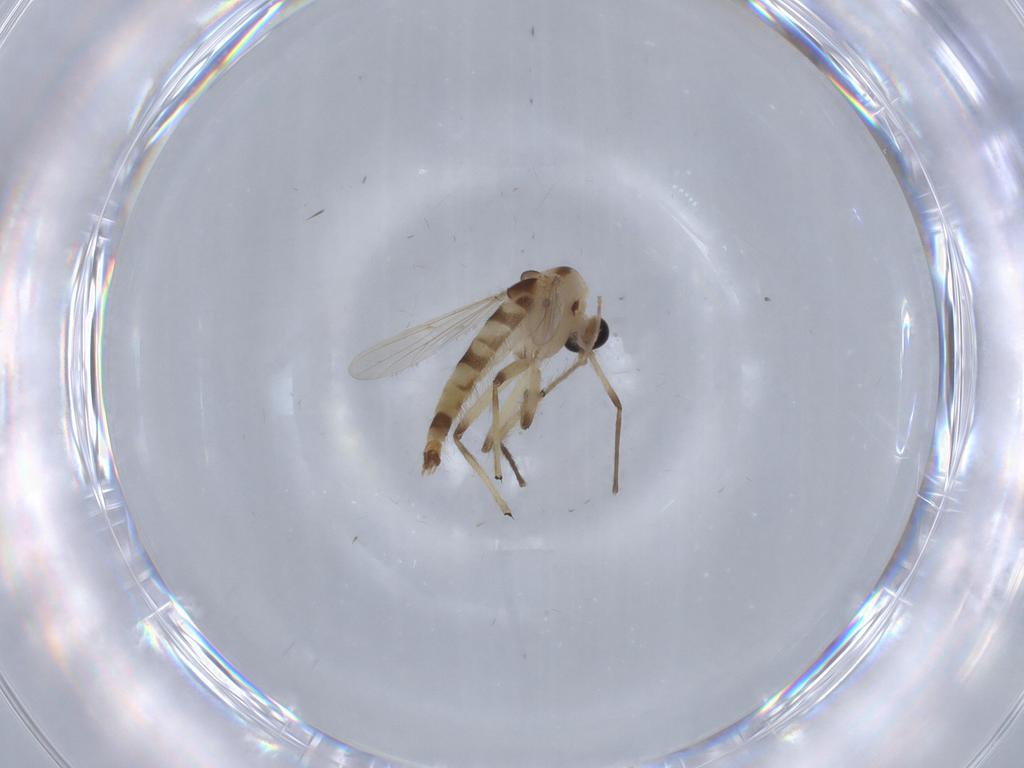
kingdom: Animalia
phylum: Arthropoda
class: Insecta
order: Diptera
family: Chironomidae
